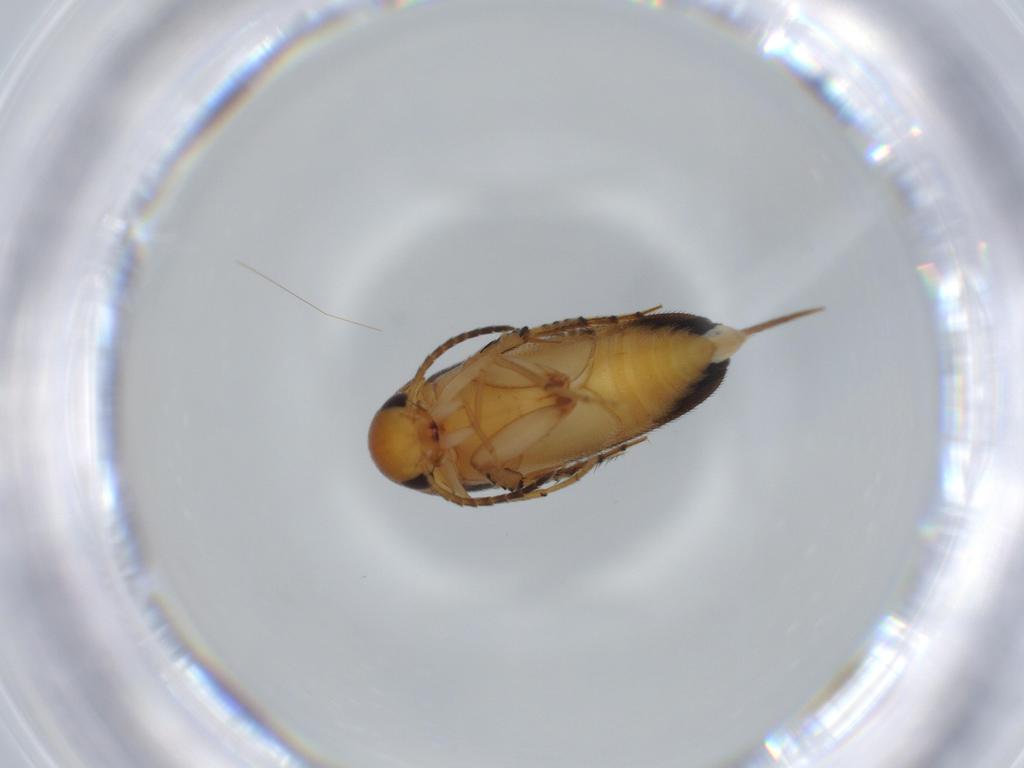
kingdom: Animalia
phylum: Arthropoda
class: Insecta
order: Coleoptera
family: Mordellidae
